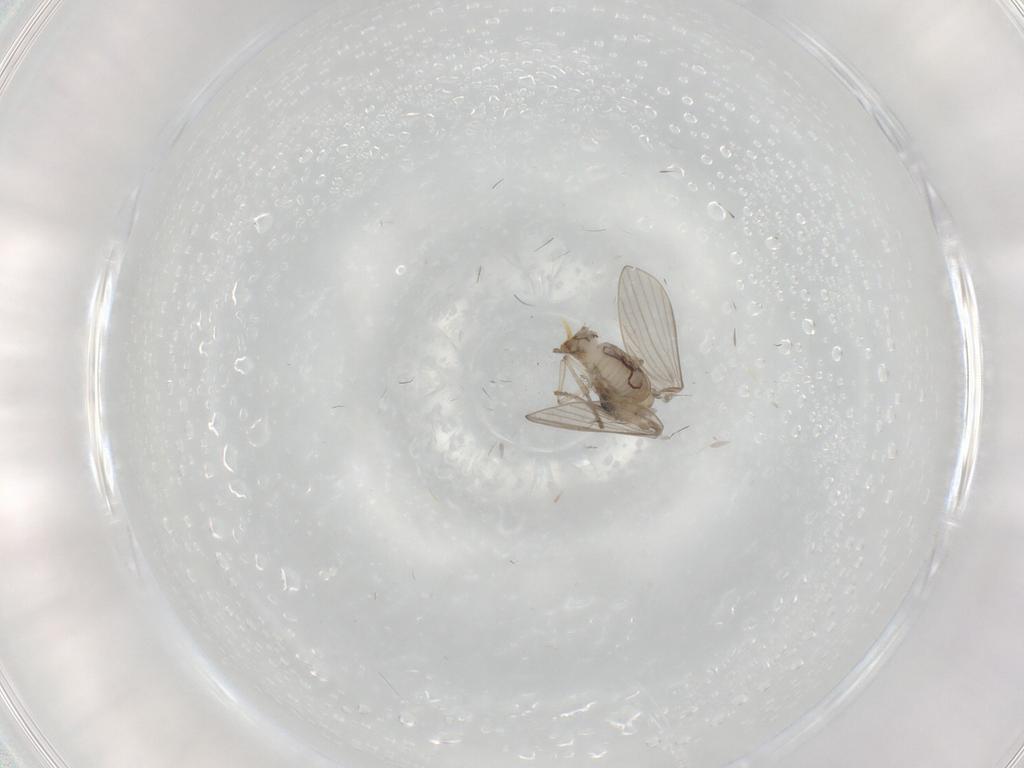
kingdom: Animalia
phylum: Arthropoda
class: Insecta
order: Diptera
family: Psychodidae
